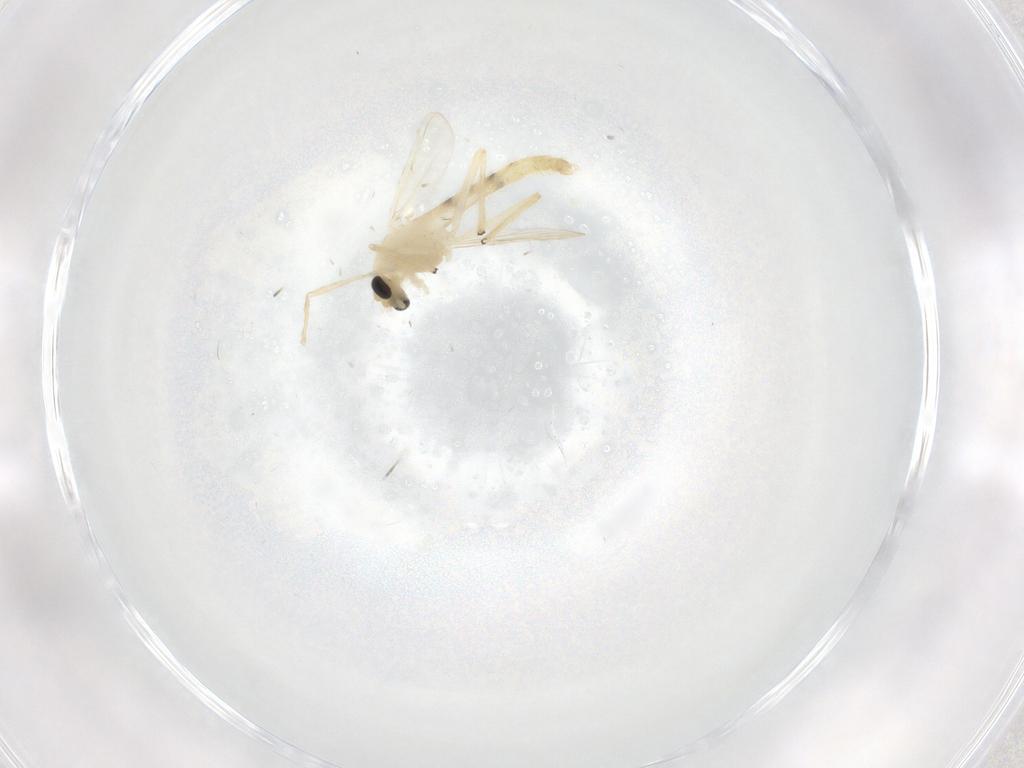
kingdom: Animalia
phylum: Arthropoda
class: Insecta
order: Diptera
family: Chironomidae
